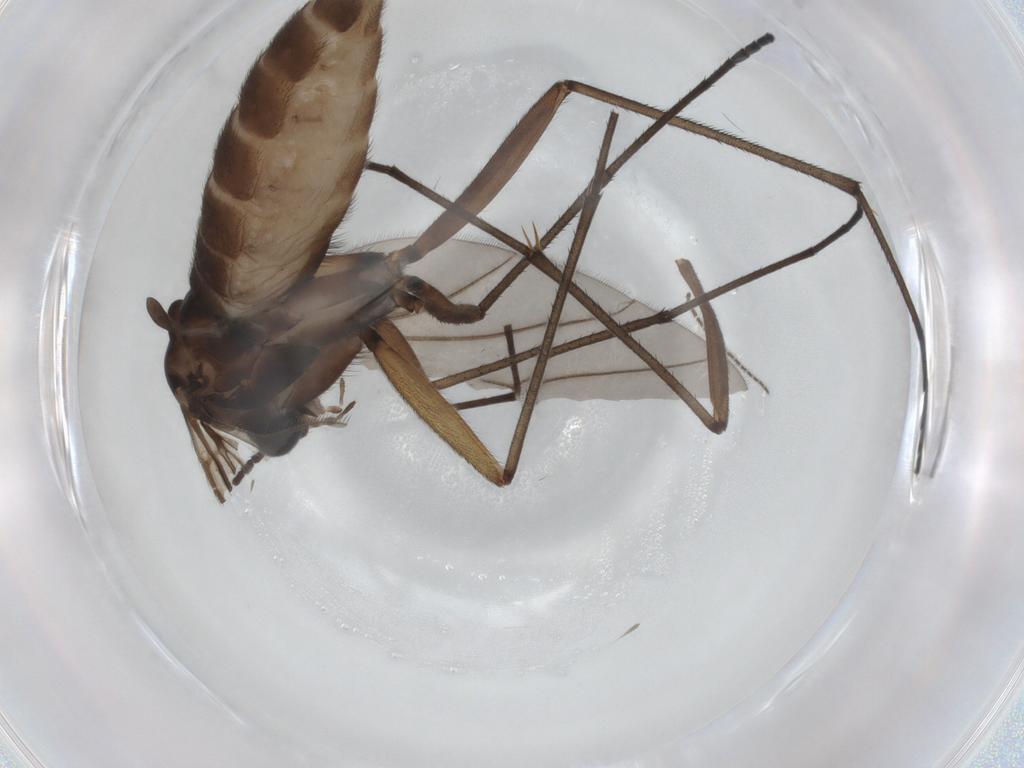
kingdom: Animalia
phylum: Arthropoda
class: Insecta
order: Diptera
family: Sciaridae
